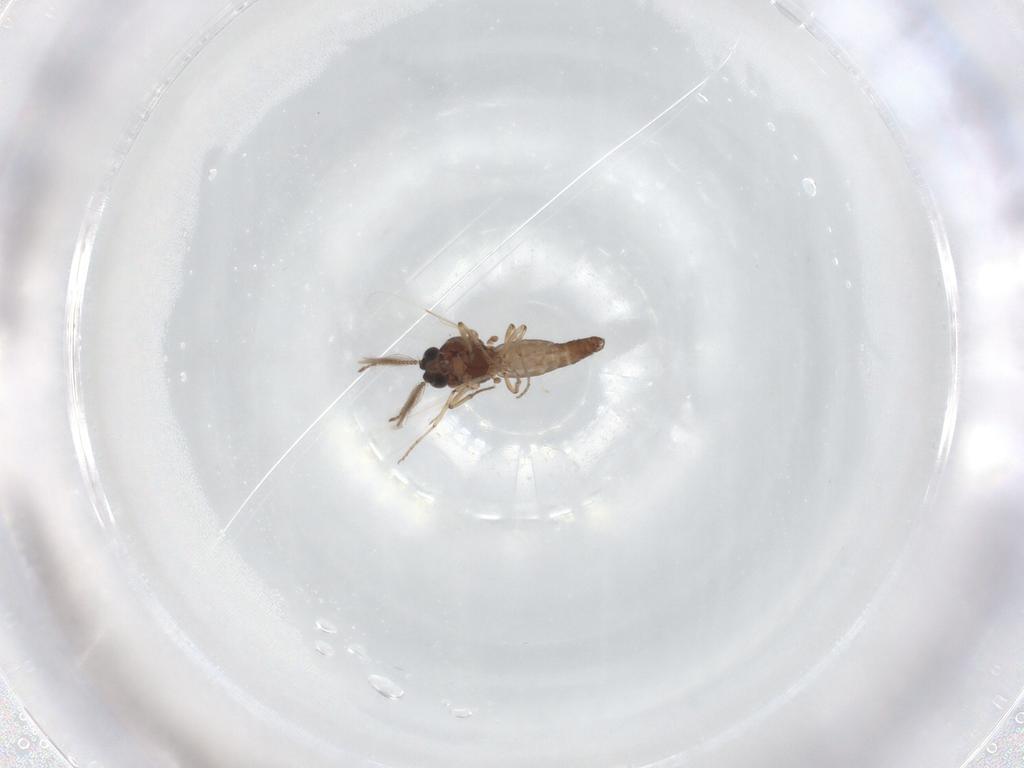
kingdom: Animalia
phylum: Arthropoda
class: Insecta
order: Diptera
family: Ceratopogonidae
